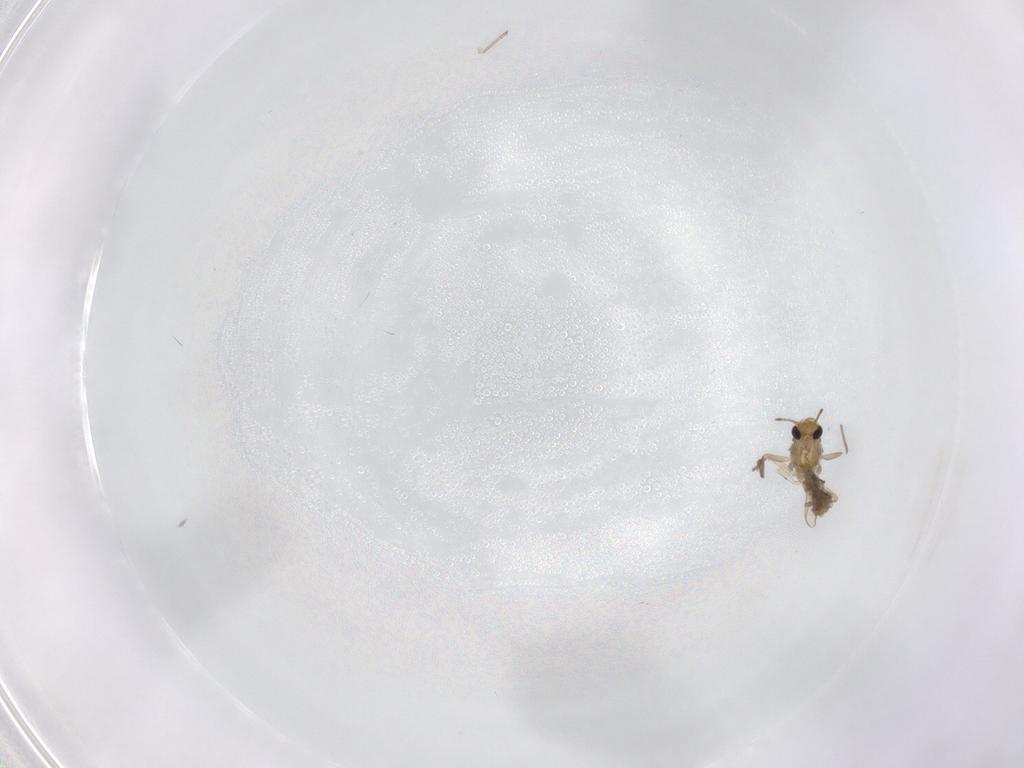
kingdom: Animalia
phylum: Arthropoda
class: Insecta
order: Diptera
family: Chironomidae
